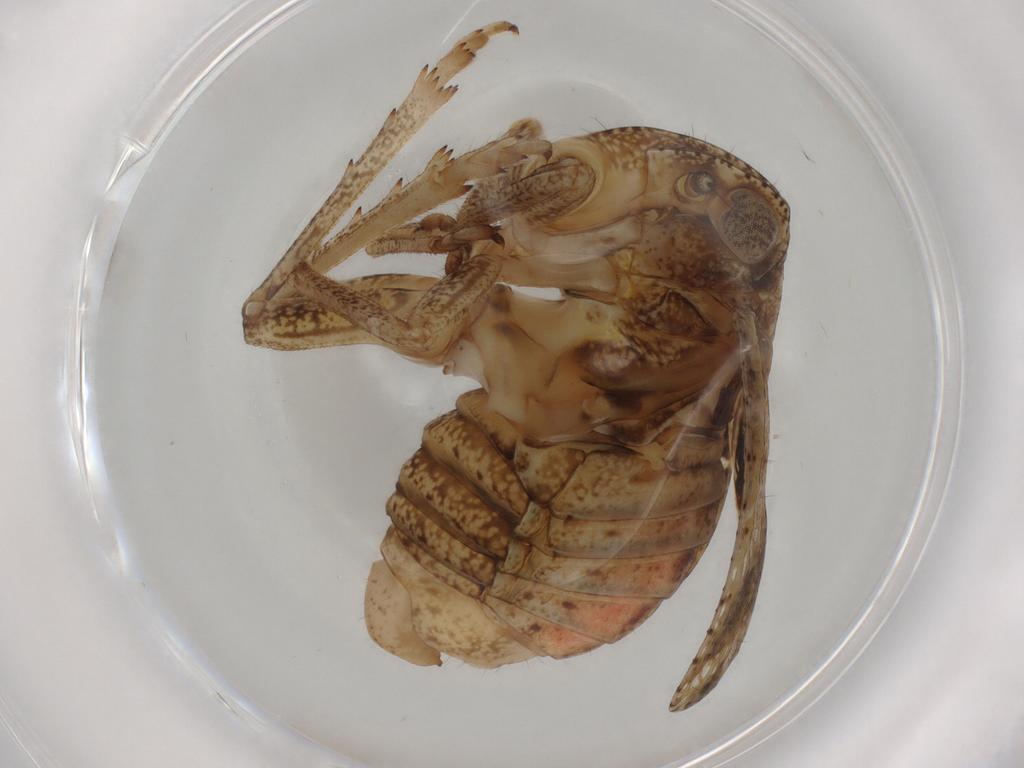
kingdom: Animalia
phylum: Arthropoda
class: Insecta
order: Hemiptera
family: Tropiduchidae
